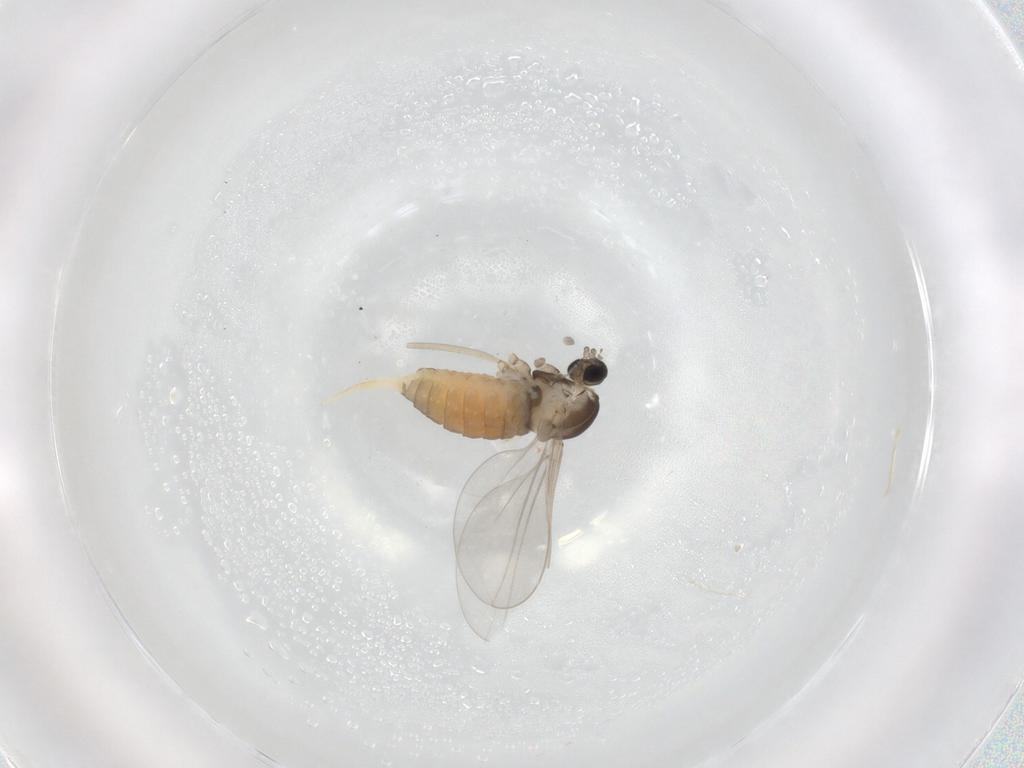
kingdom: Animalia
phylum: Arthropoda
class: Insecta
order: Diptera
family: Cecidomyiidae
